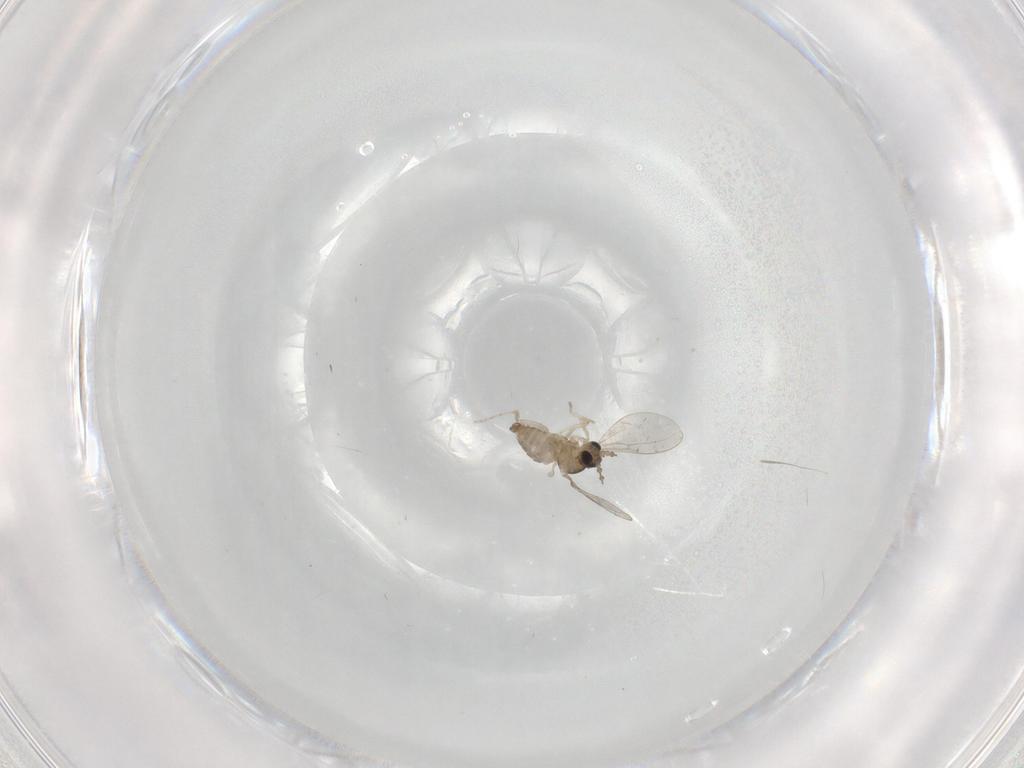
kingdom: Animalia
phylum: Arthropoda
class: Insecta
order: Diptera
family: Cecidomyiidae
